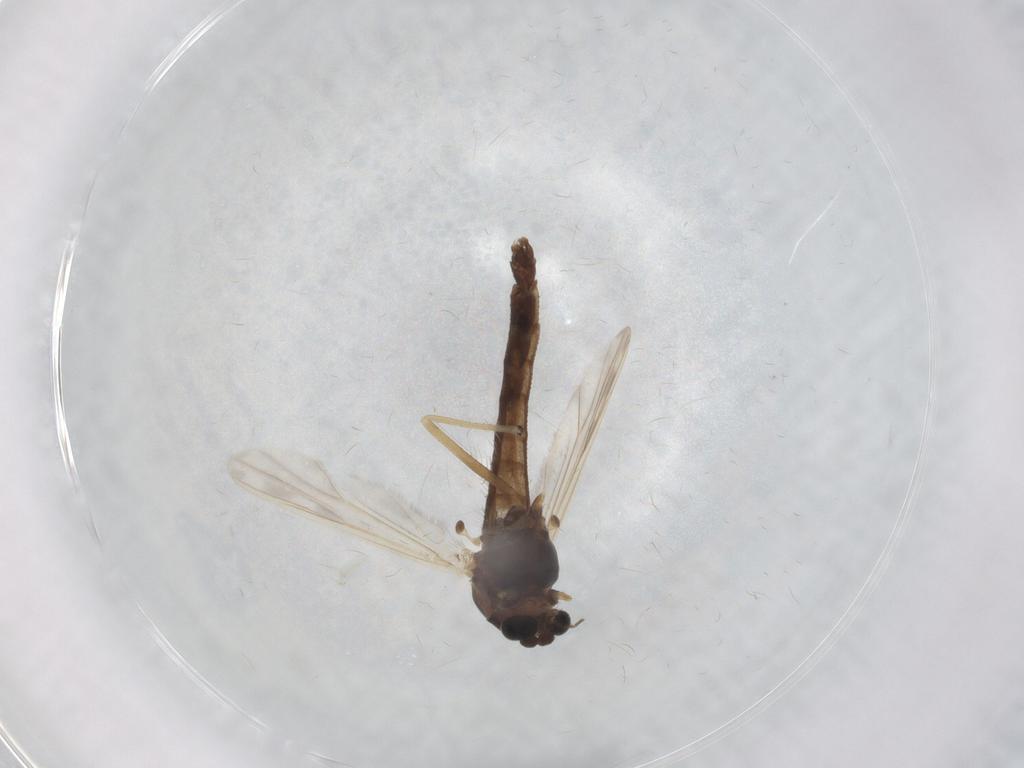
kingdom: Animalia
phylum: Arthropoda
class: Insecta
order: Diptera
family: Chironomidae
